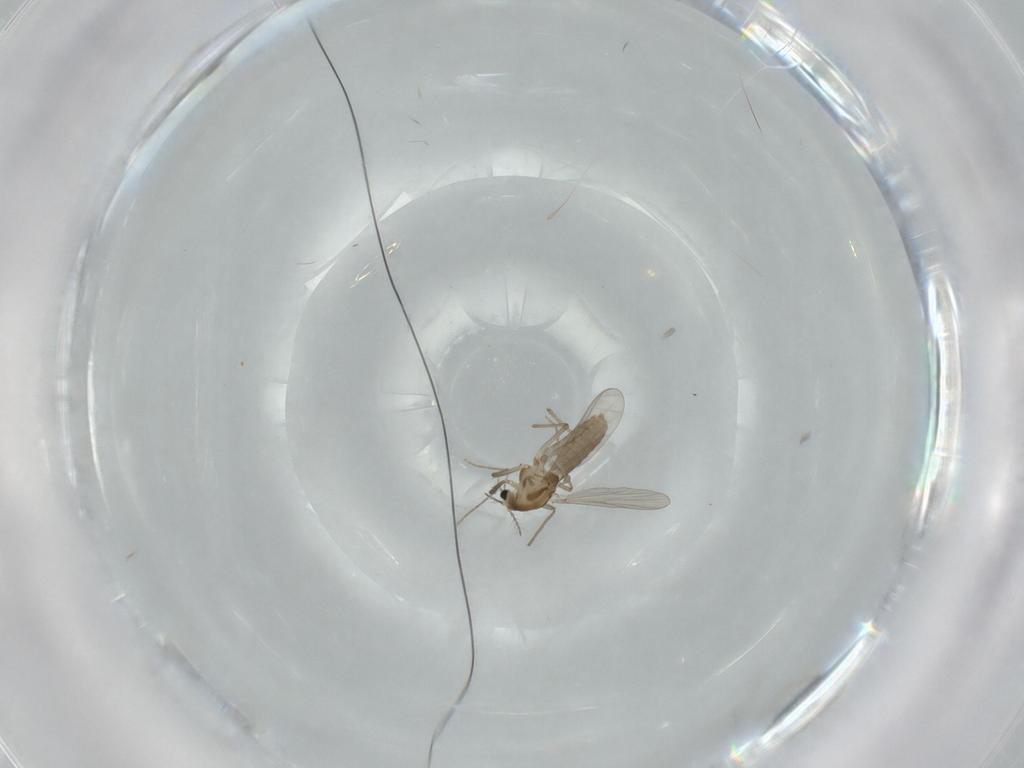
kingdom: Animalia
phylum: Arthropoda
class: Insecta
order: Diptera
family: Chironomidae
